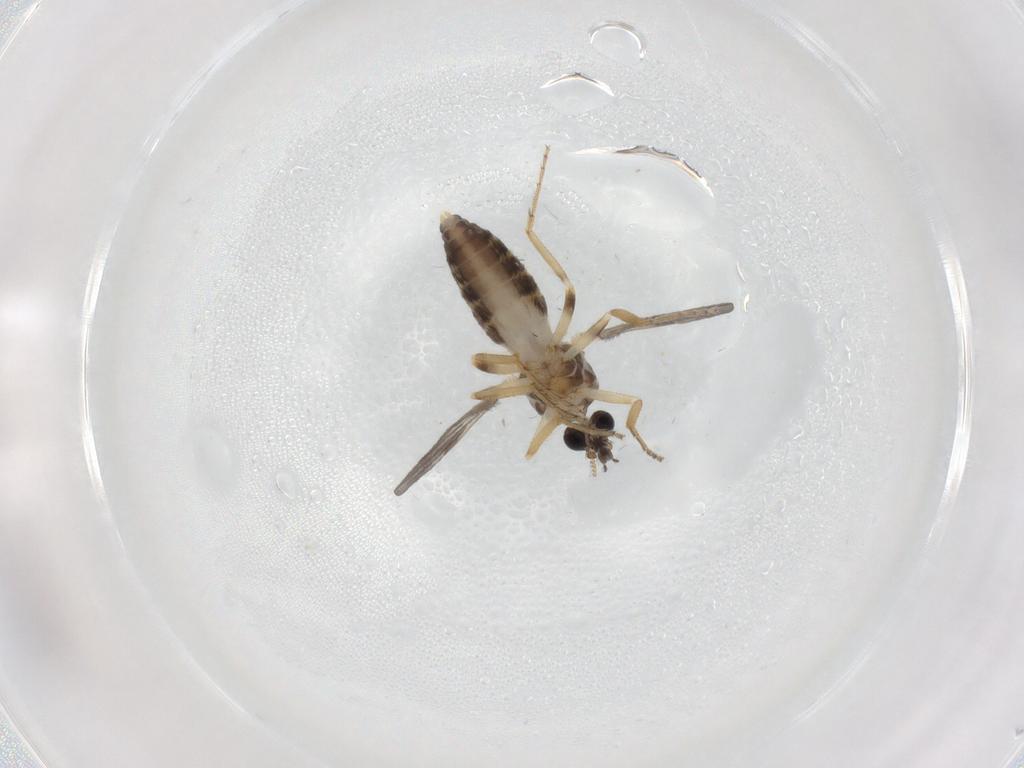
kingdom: Animalia
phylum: Arthropoda
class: Insecta
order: Diptera
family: Ceratopogonidae
